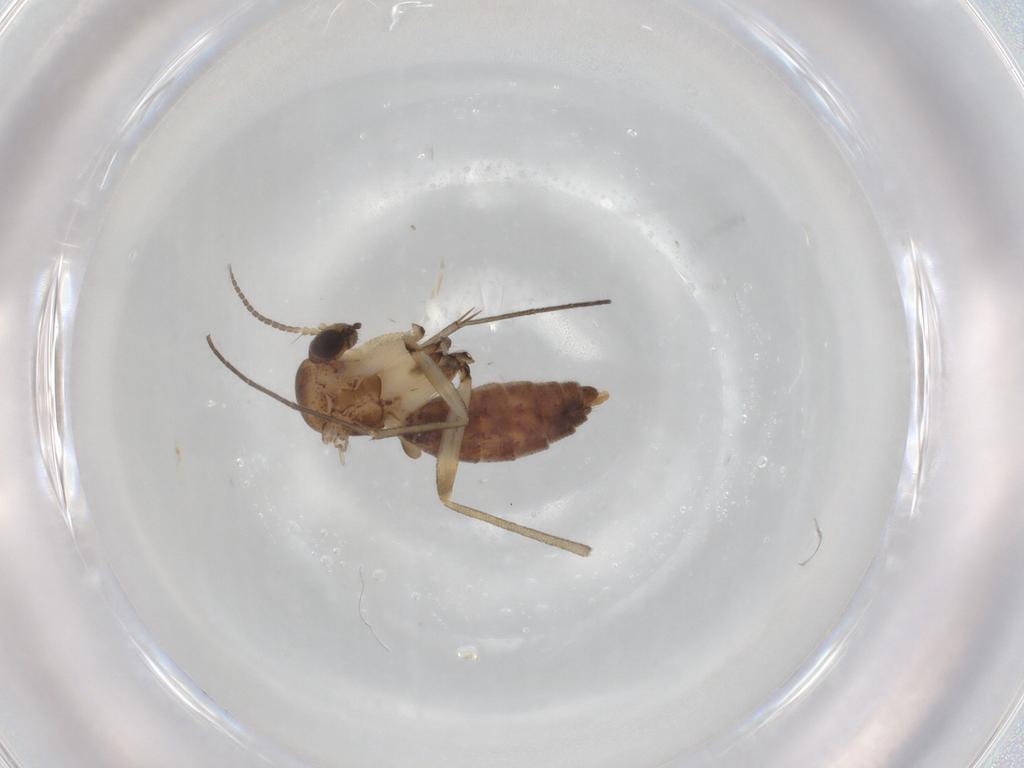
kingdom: Animalia
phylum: Arthropoda
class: Insecta
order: Diptera
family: Mycetophilidae
